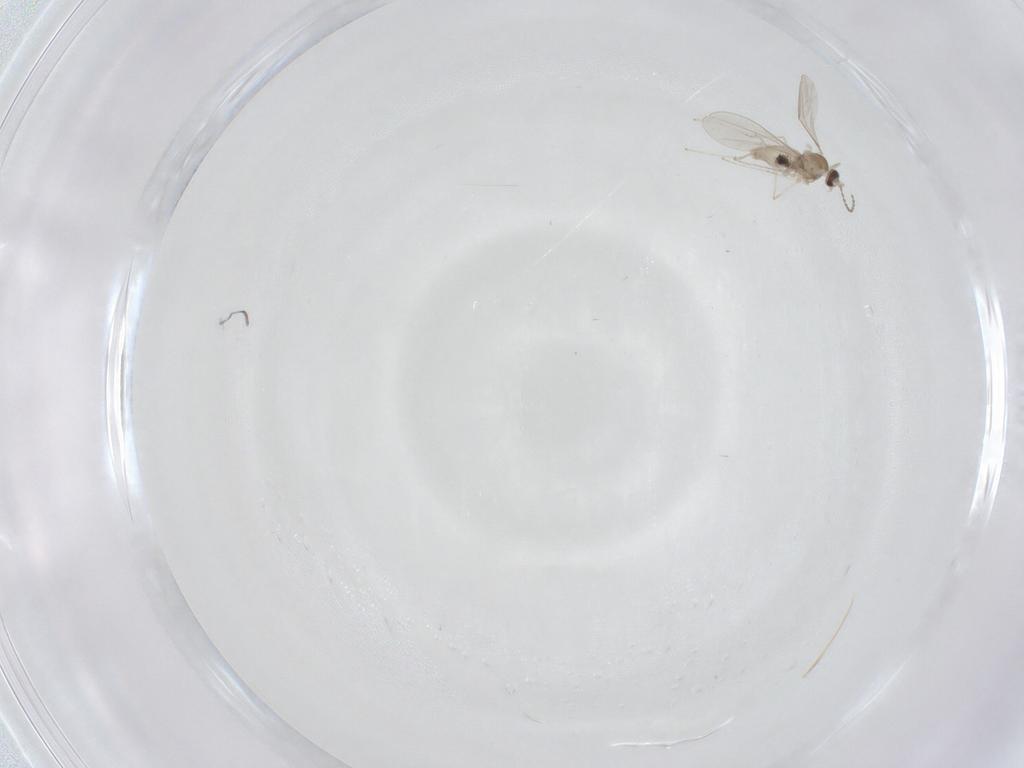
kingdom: Animalia
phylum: Arthropoda
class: Insecta
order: Diptera
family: Cecidomyiidae
